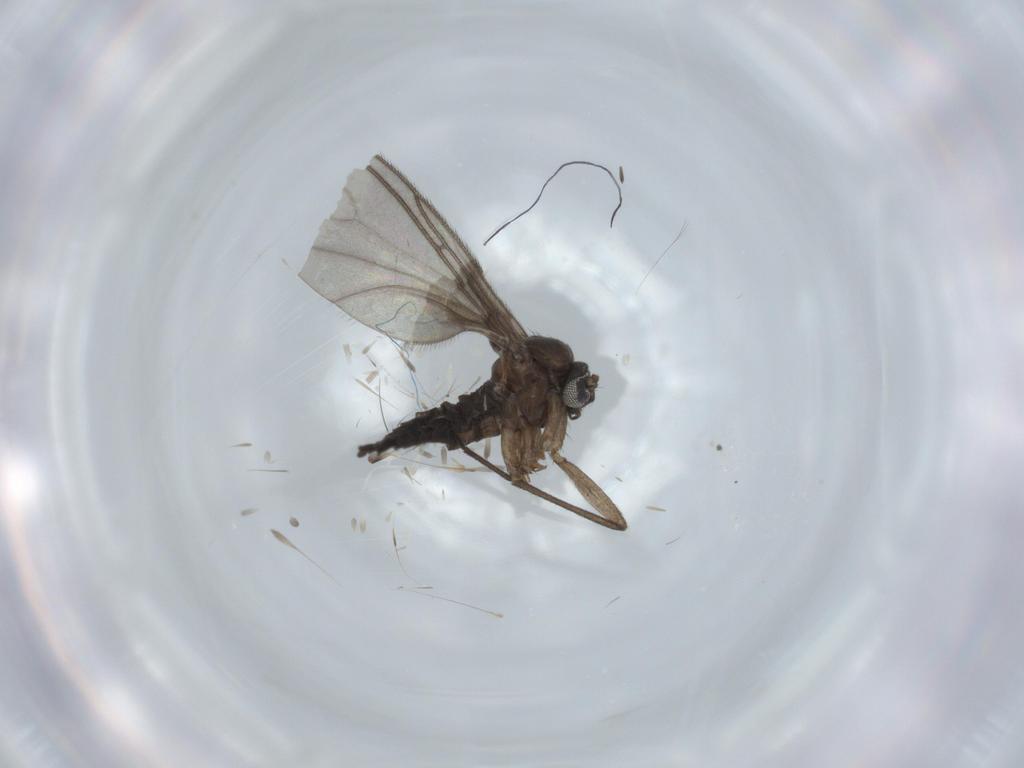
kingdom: Animalia
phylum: Arthropoda
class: Insecta
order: Diptera
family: Sciaridae
